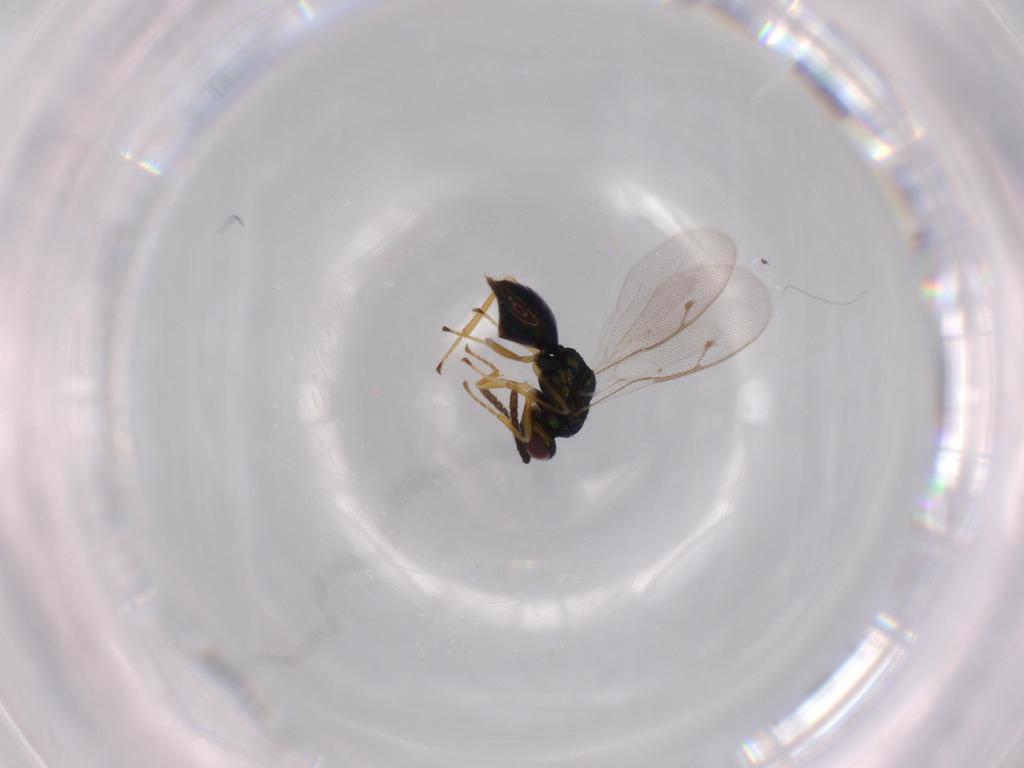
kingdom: Animalia
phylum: Arthropoda
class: Insecta
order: Hymenoptera
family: Pteromalidae
